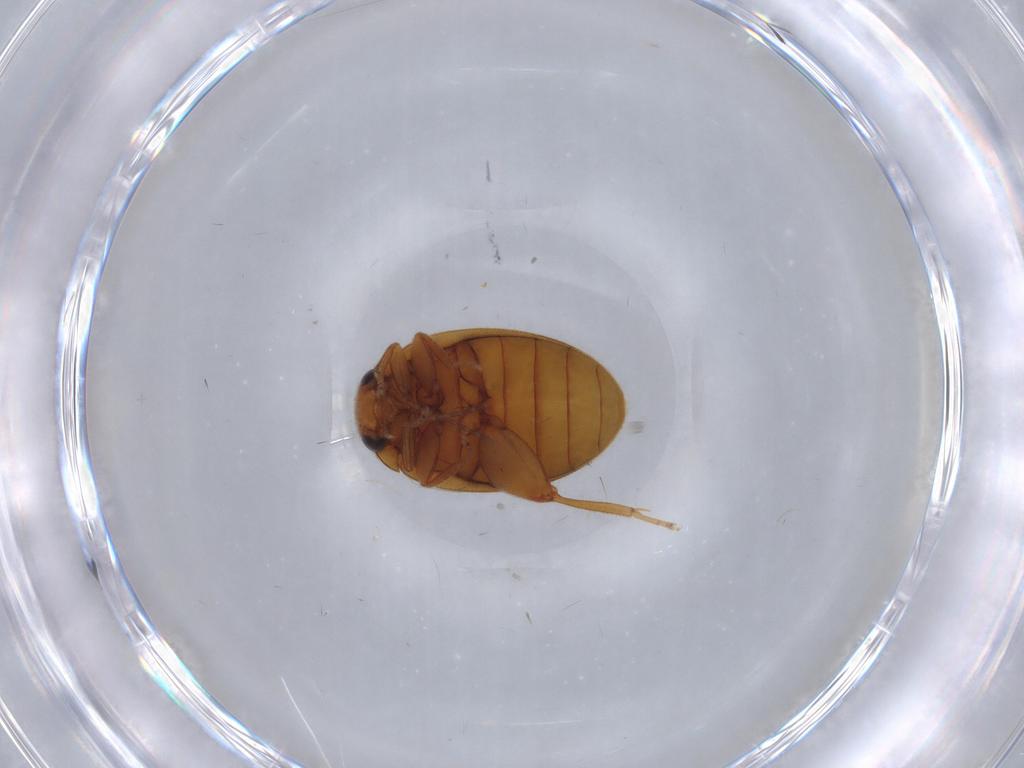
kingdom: Animalia
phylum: Arthropoda
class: Insecta
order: Coleoptera
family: Scirtidae
